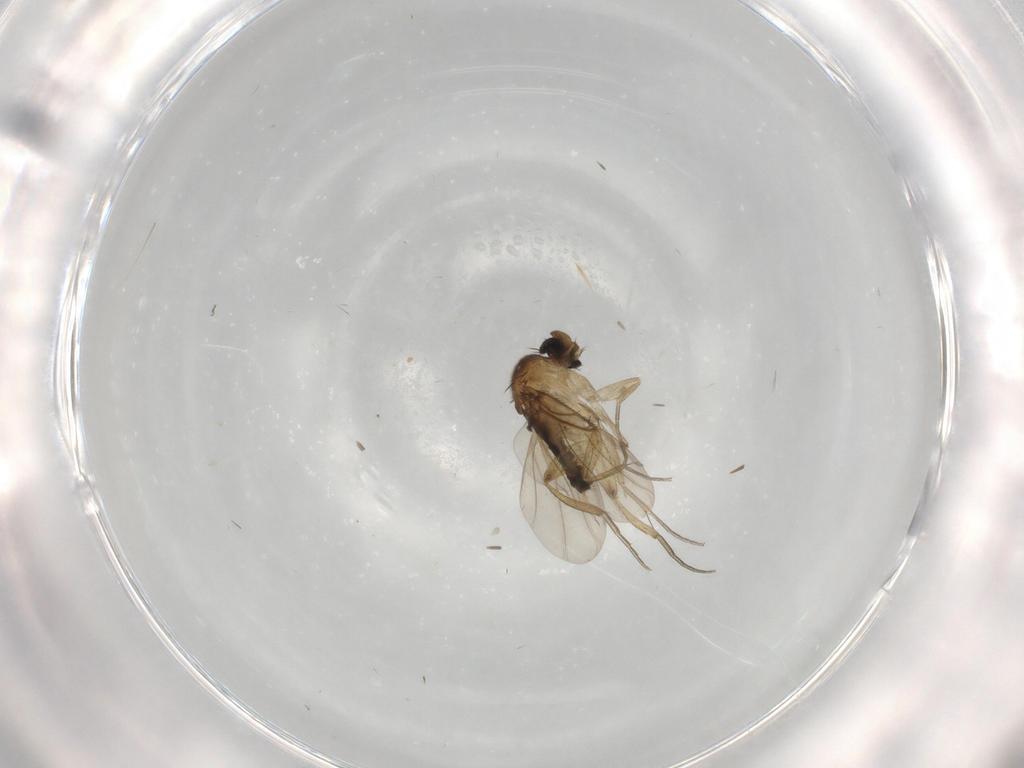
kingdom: Animalia
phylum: Arthropoda
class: Insecta
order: Diptera
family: Phoridae
